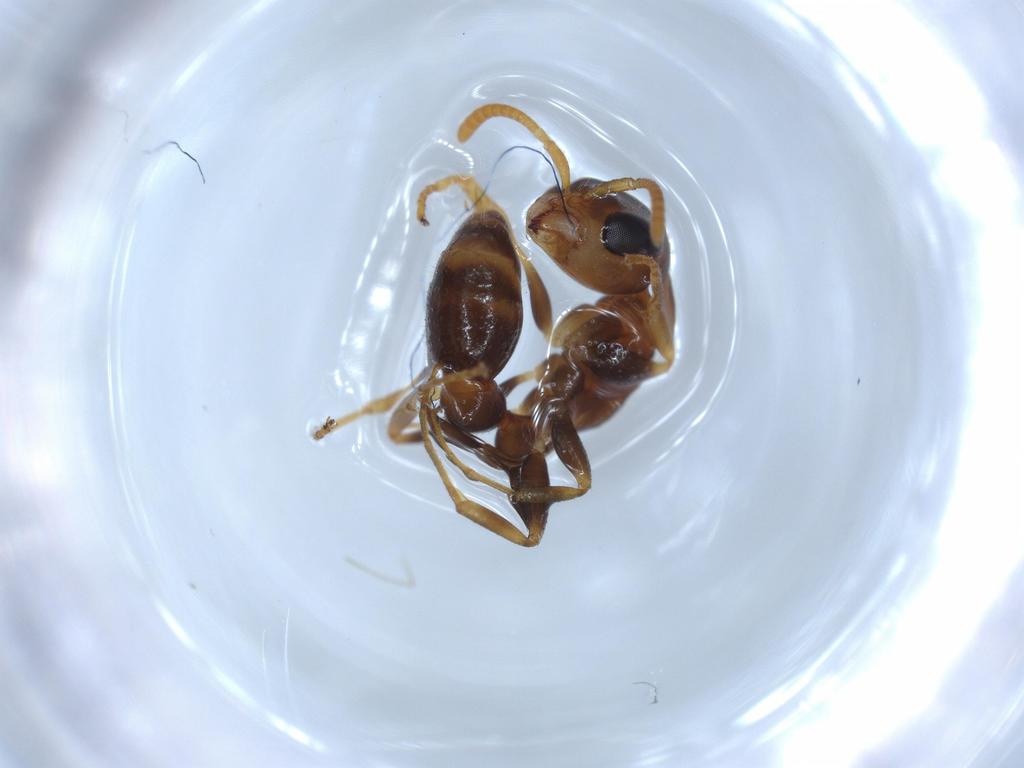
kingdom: Animalia
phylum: Arthropoda
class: Insecta
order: Hymenoptera
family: Formicidae
